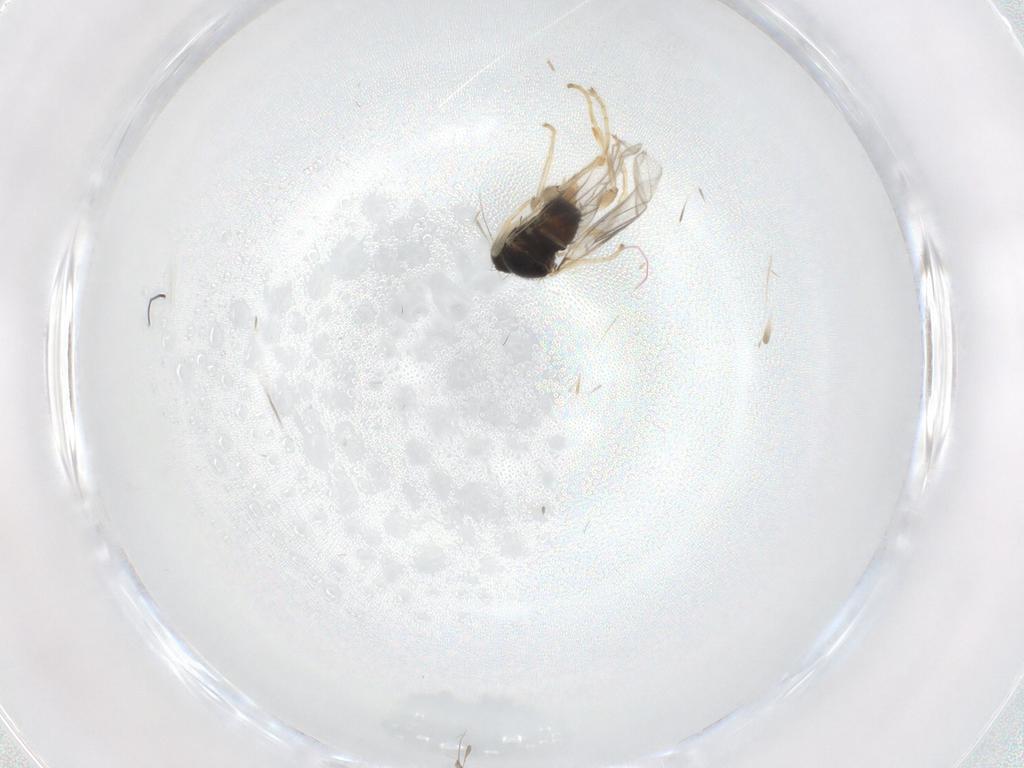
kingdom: Animalia
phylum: Arthropoda
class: Insecta
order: Diptera
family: Hybotidae
